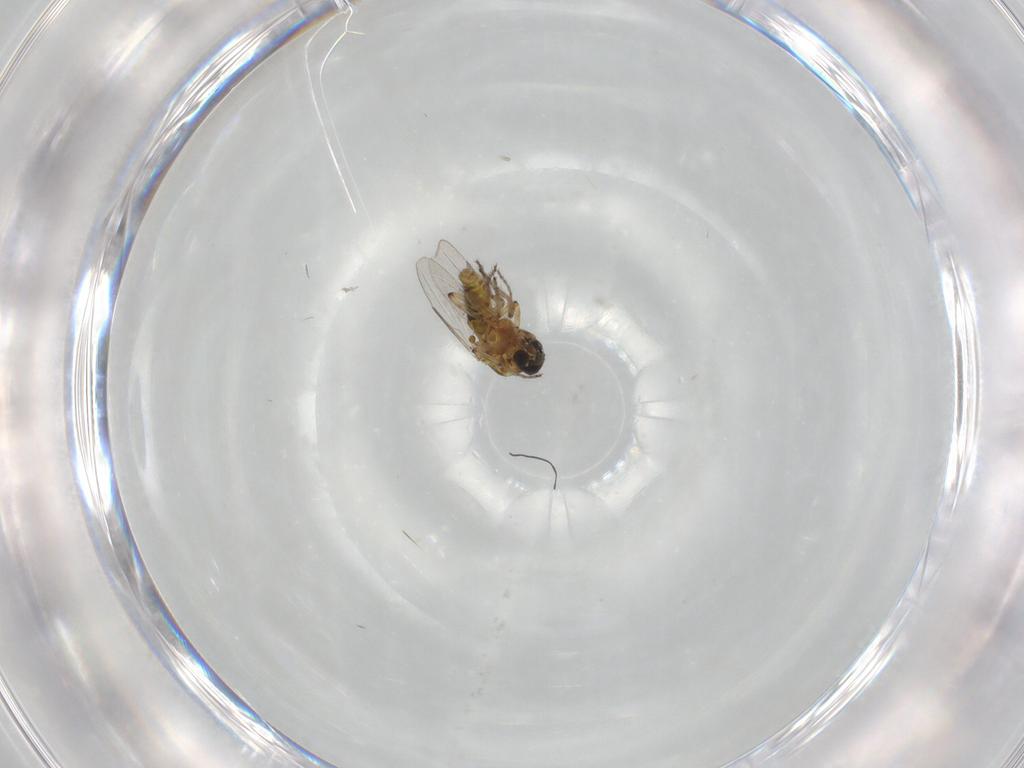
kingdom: Animalia
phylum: Arthropoda
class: Insecta
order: Diptera
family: Ceratopogonidae
